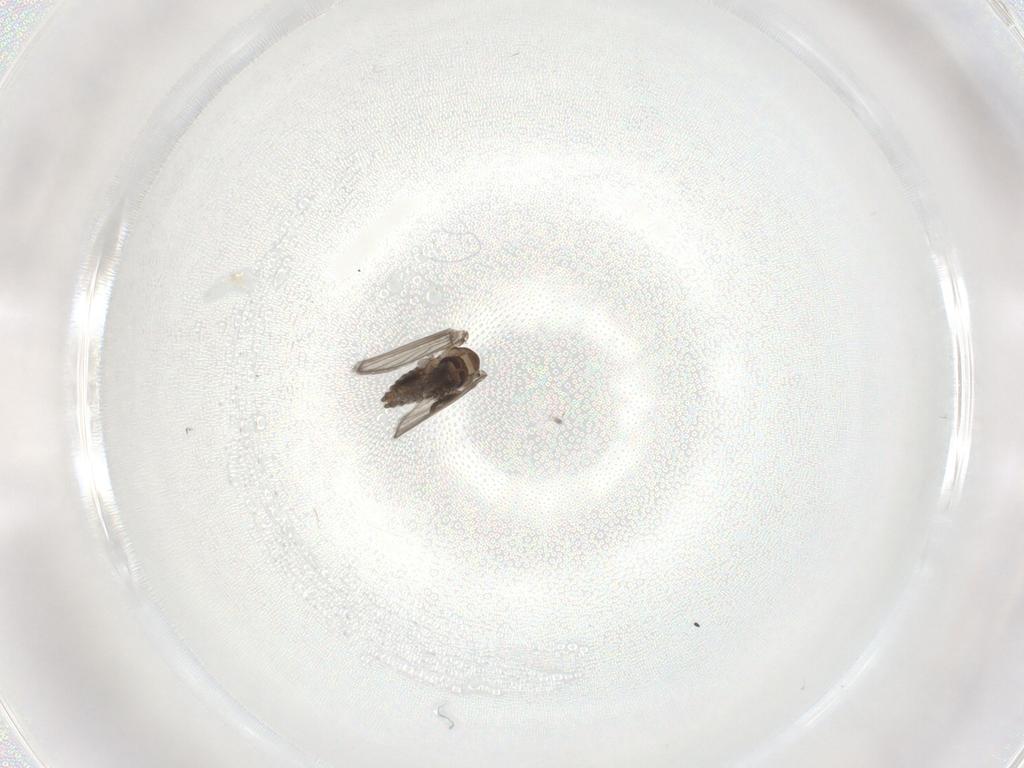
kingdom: Animalia
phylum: Arthropoda
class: Insecta
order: Diptera
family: Psychodidae
